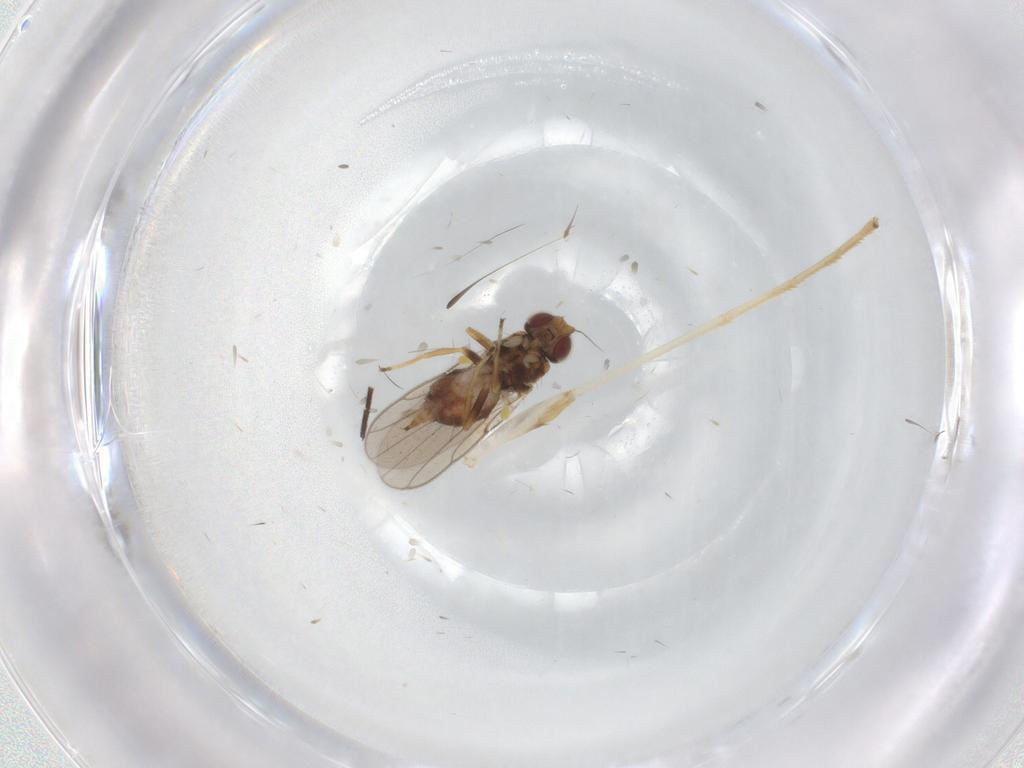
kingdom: Animalia
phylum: Arthropoda
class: Insecta
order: Diptera
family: Chloropidae
